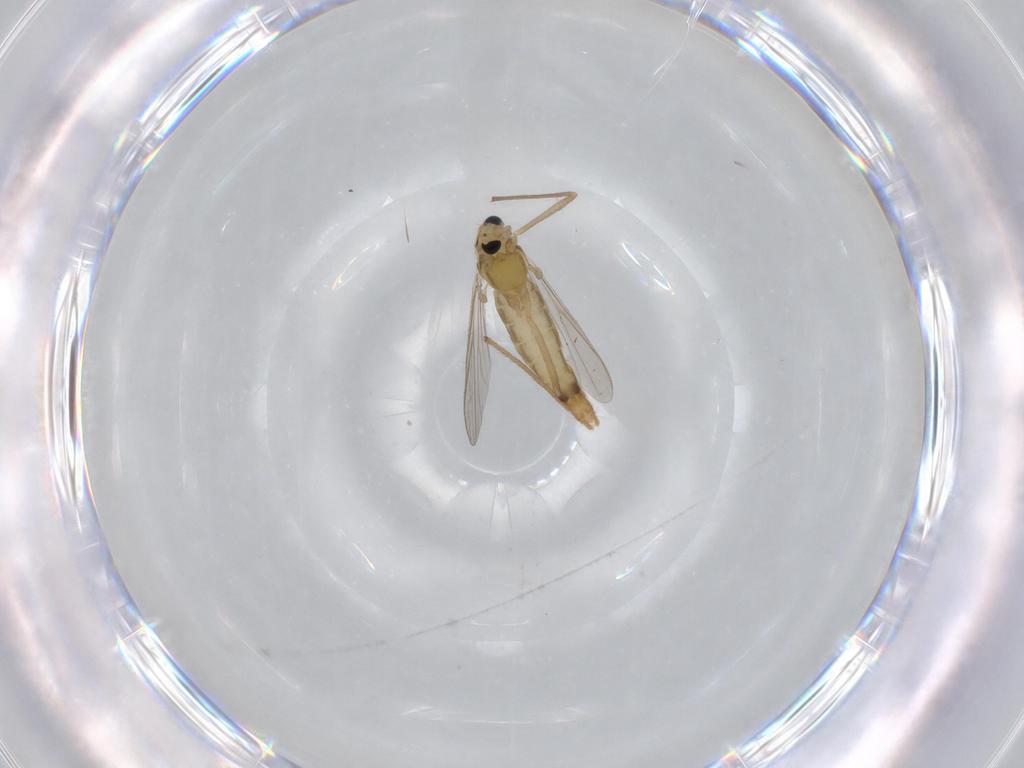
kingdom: Animalia
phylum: Arthropoda
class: Insecta
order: Diptera
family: Chironomidae
